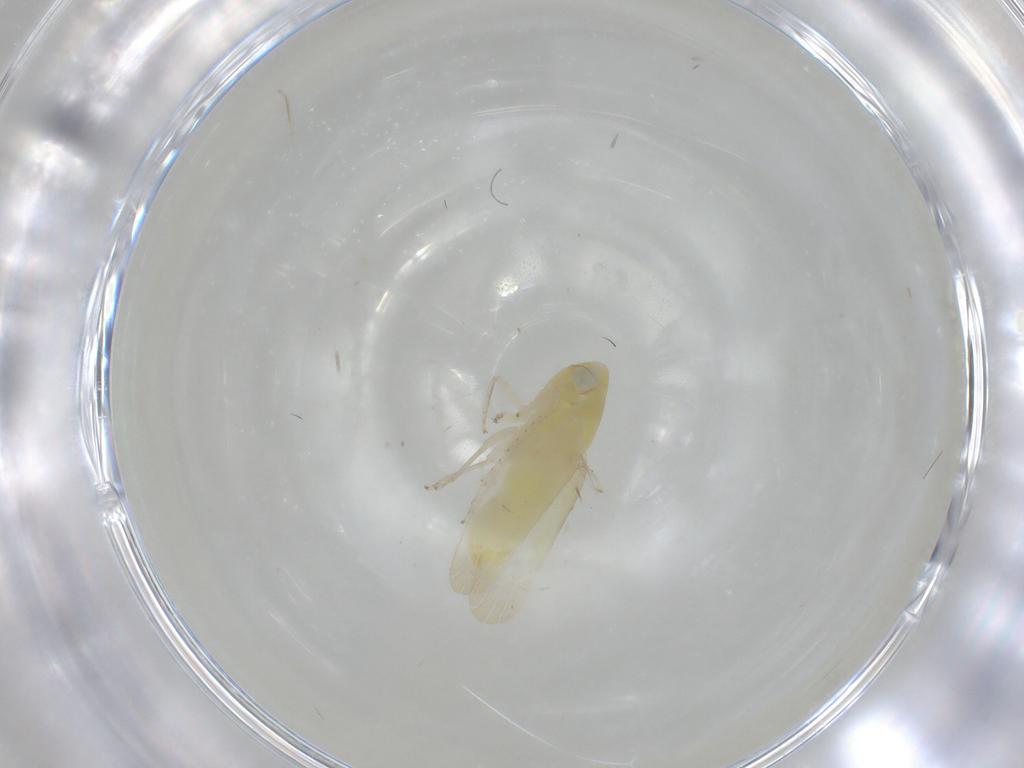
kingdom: Animalia
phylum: Arthropoda
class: Insecta
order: Hemiptera
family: Cicadellidae
